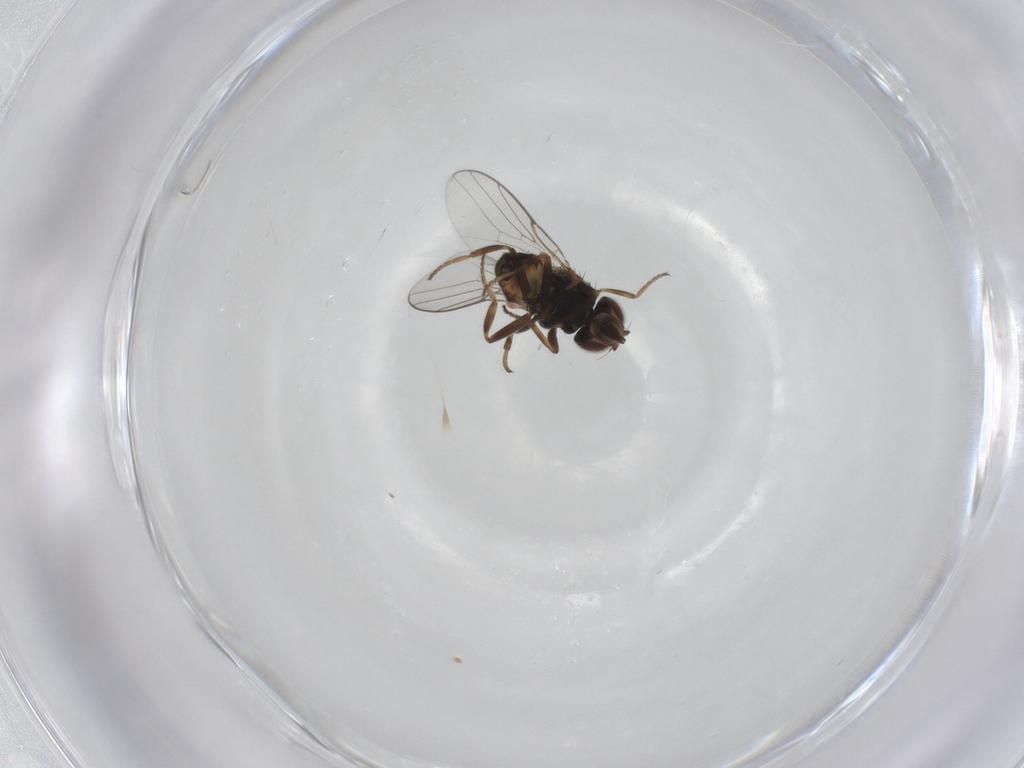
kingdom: Animalia
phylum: Arthropoda
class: Insecta
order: Diptera
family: Chloropidae
